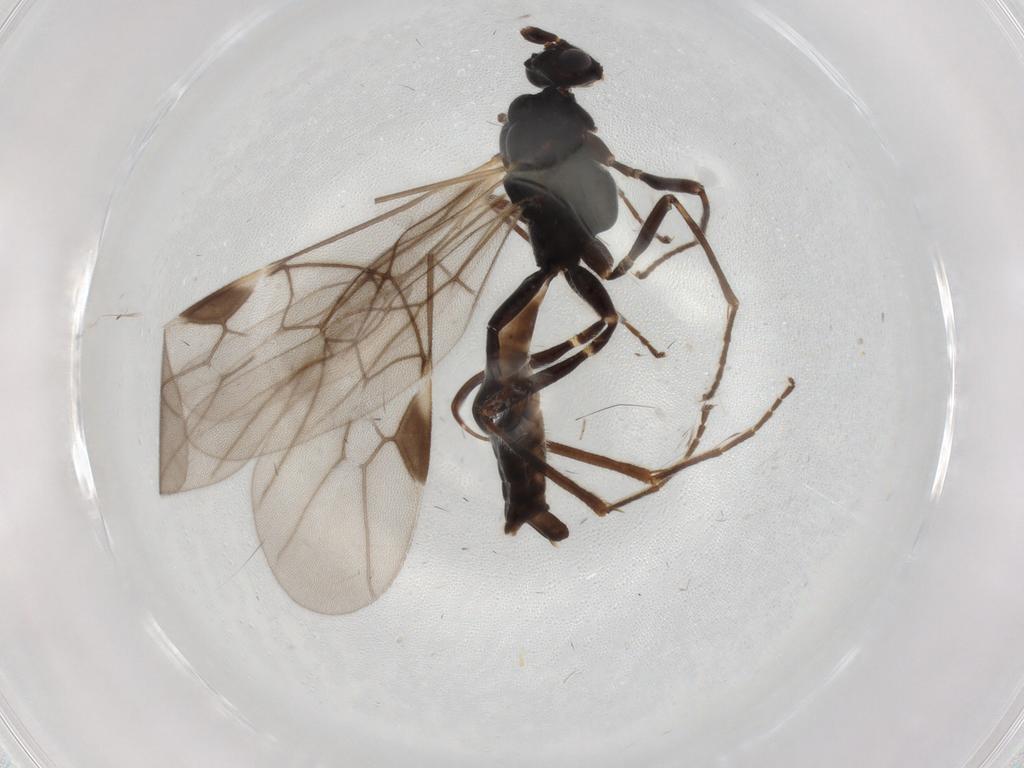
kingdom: Animalia
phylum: Arthropoda
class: Insecta
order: Hymenoptera
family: Braconidae
